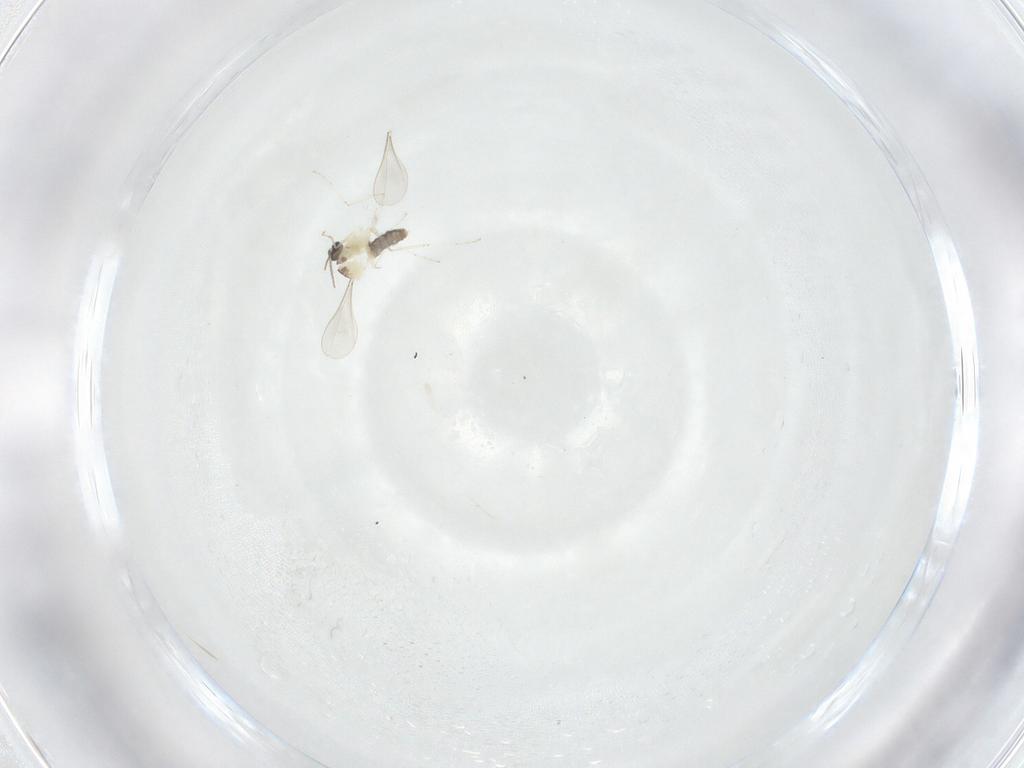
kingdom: Animalia
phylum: Arthropoda
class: Insecta
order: Diptera
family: Cecidomyiidae
